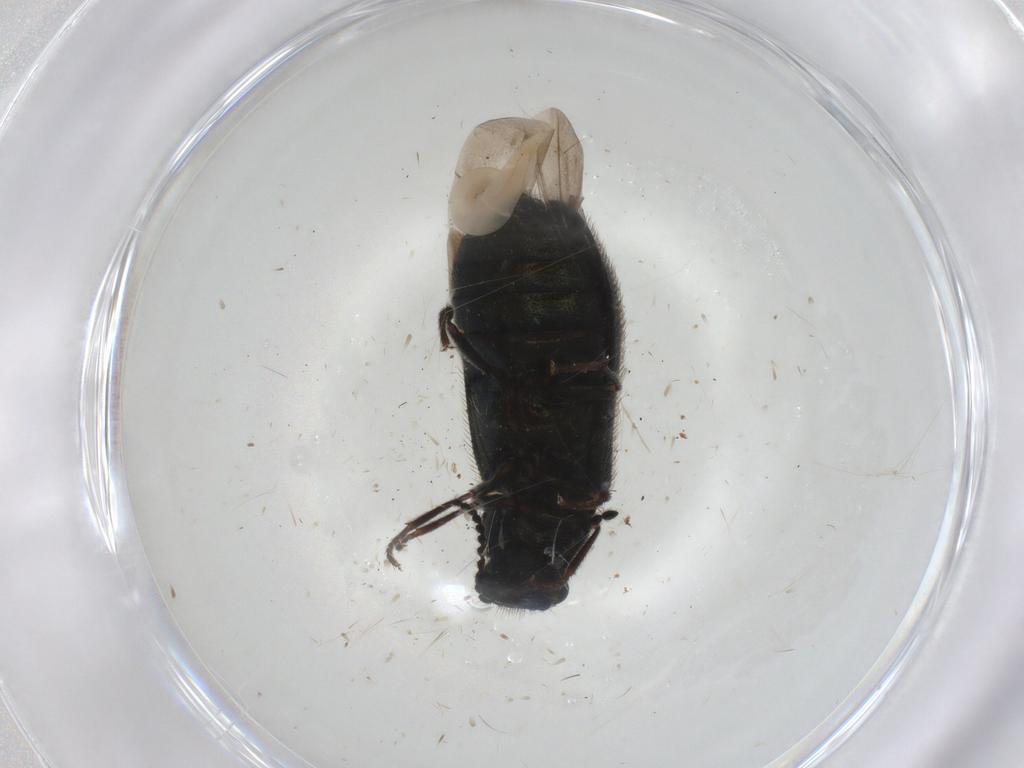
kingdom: Animalia
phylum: Arthropoda
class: Insecta
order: Coleoptera
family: Melyridae
